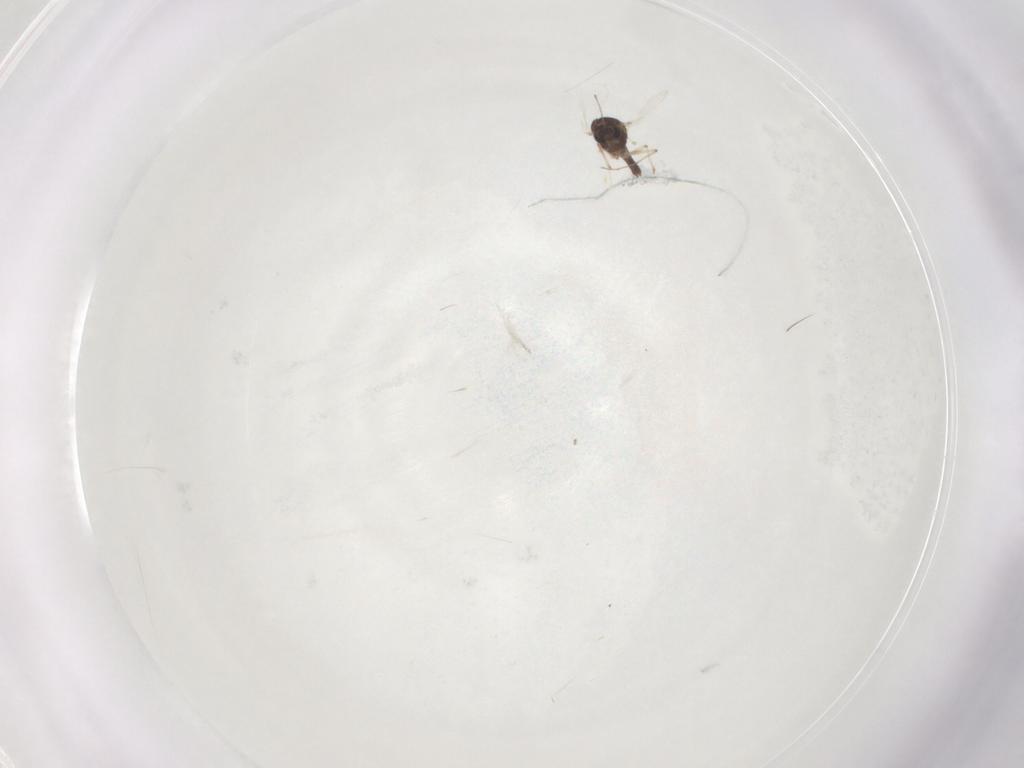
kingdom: Animalia
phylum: Arthropoda
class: Insecta
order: Diptera
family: Chironomidae
